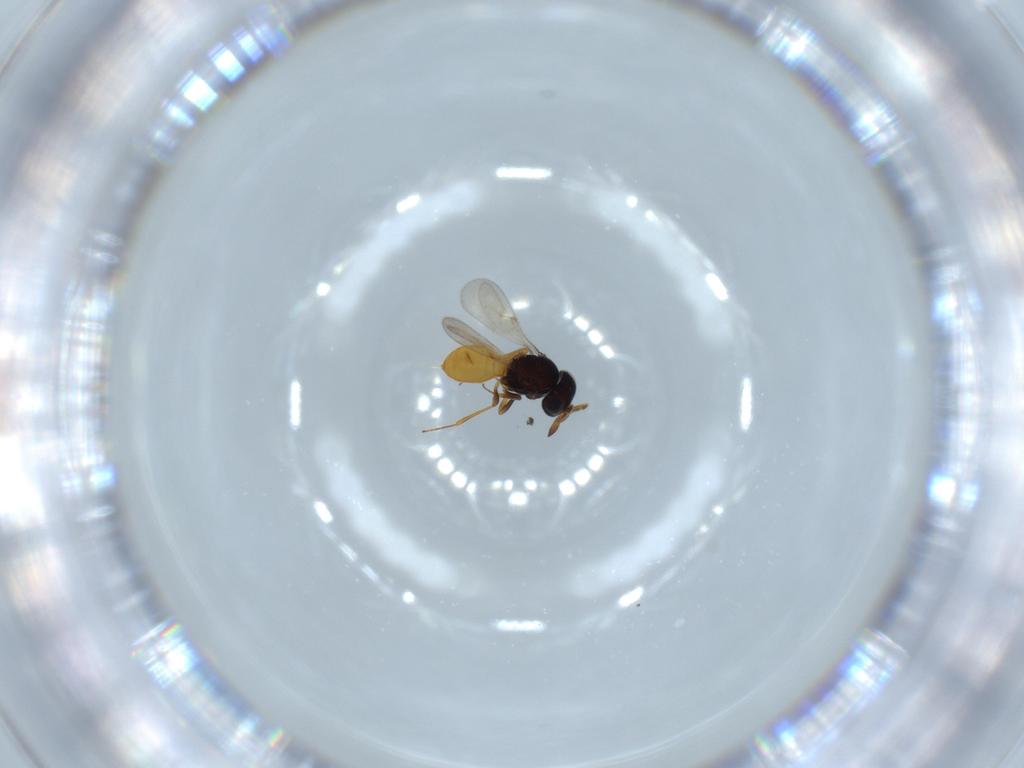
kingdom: Animalia
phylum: Arthropoda
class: Insecta
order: Hymenoptera
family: Scelionidae
